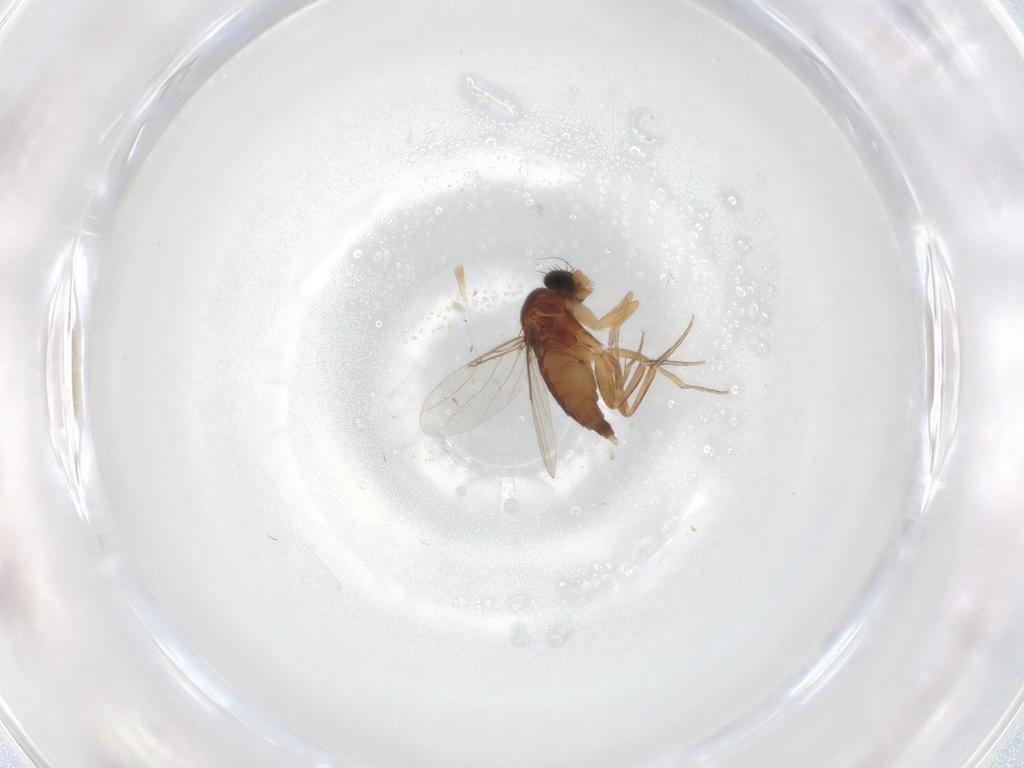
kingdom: Animalia
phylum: Arthropoda
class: Insecta
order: Diptera
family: Phoridae
